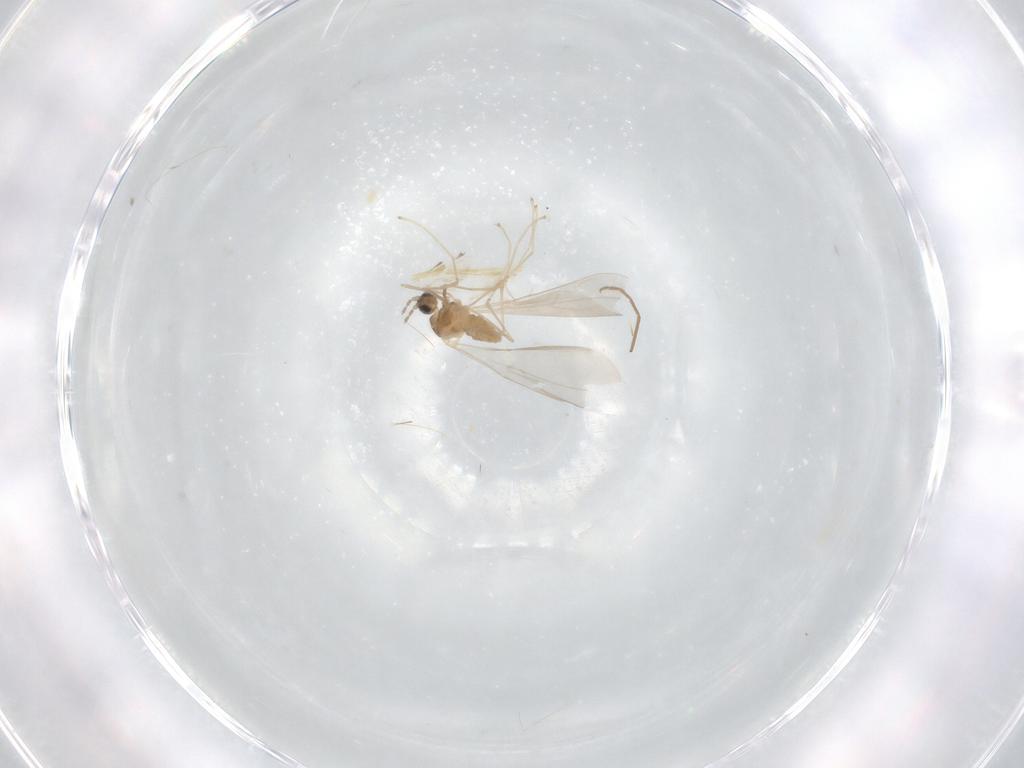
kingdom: Animalia
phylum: Arthropoda
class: Insecta
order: Diptera
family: Cecidomyiidae
